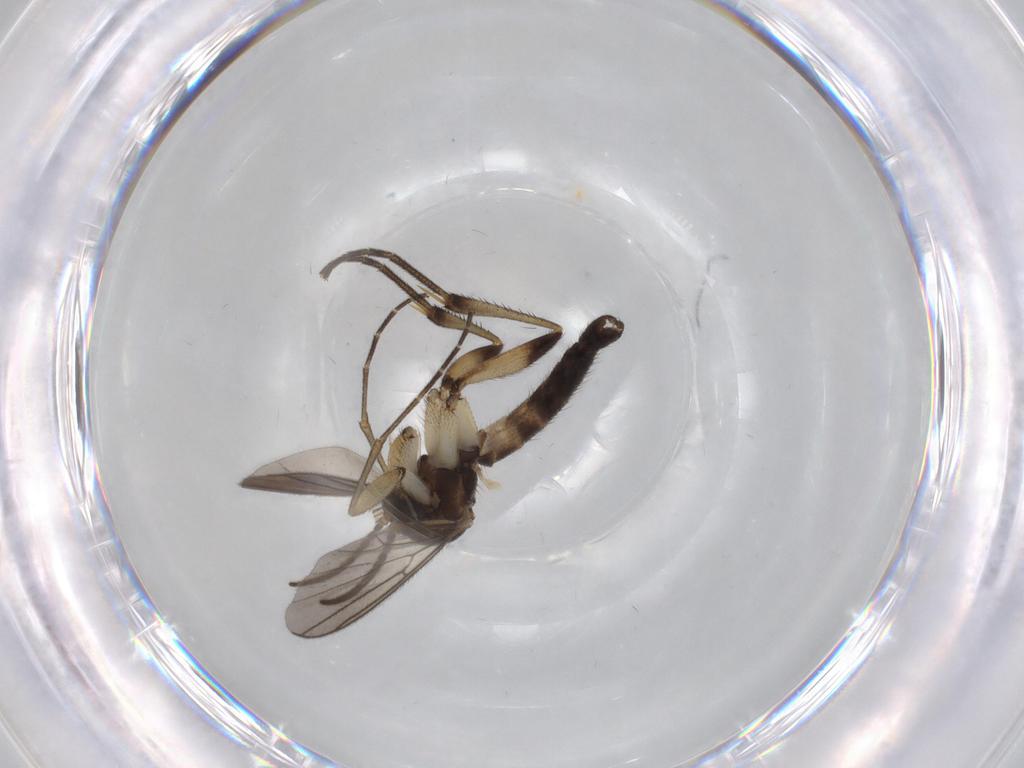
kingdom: Animalia
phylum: Arthropoda
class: Insecta
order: Diptera
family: Mycetophilidae
